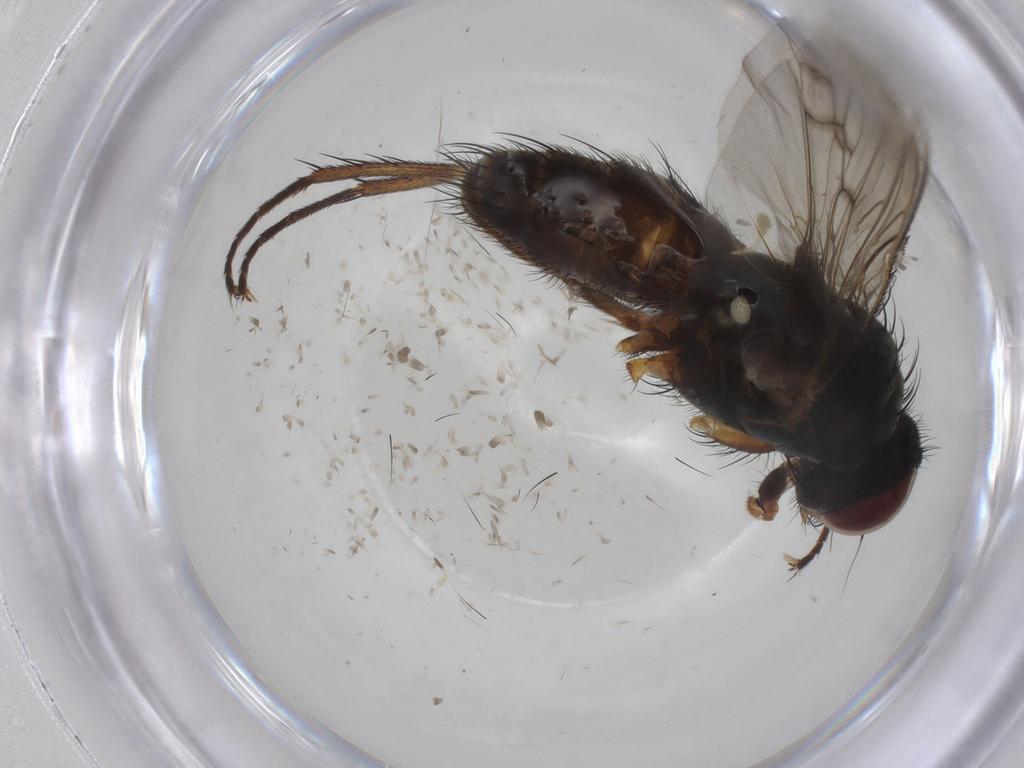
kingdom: Animalia
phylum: Arthropoda
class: Insecta
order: Diptera
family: Anthomyiidae
